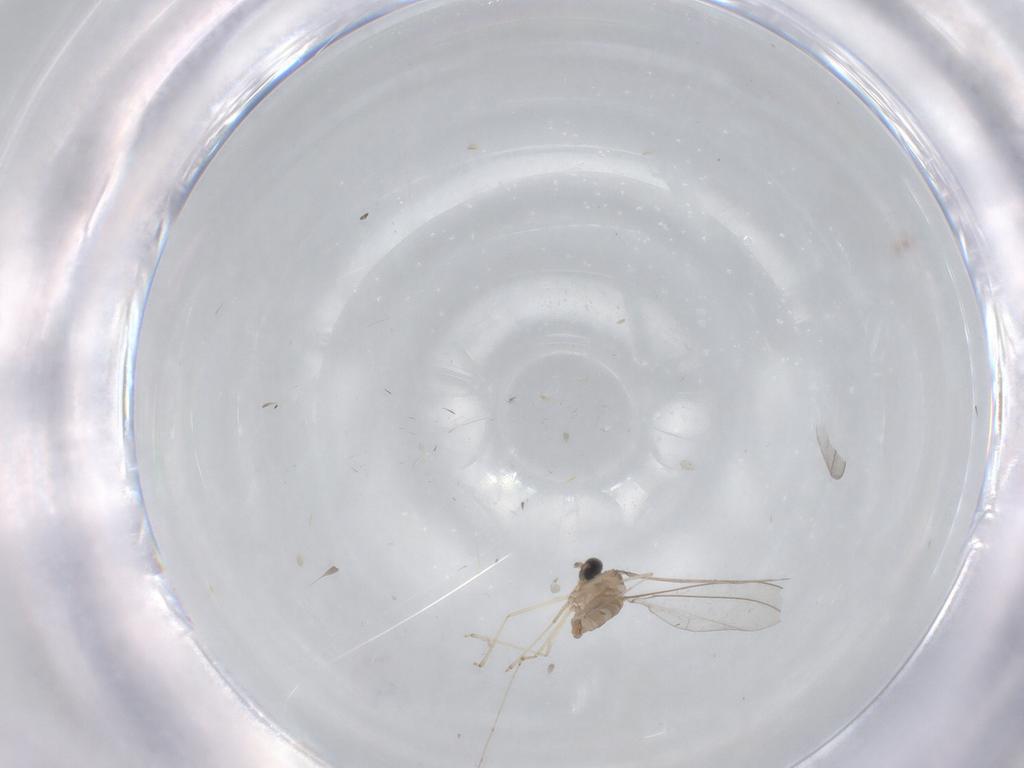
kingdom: Animalia
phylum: Arthropoda
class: Insecta
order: Diptera
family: Cecidomyiidae
